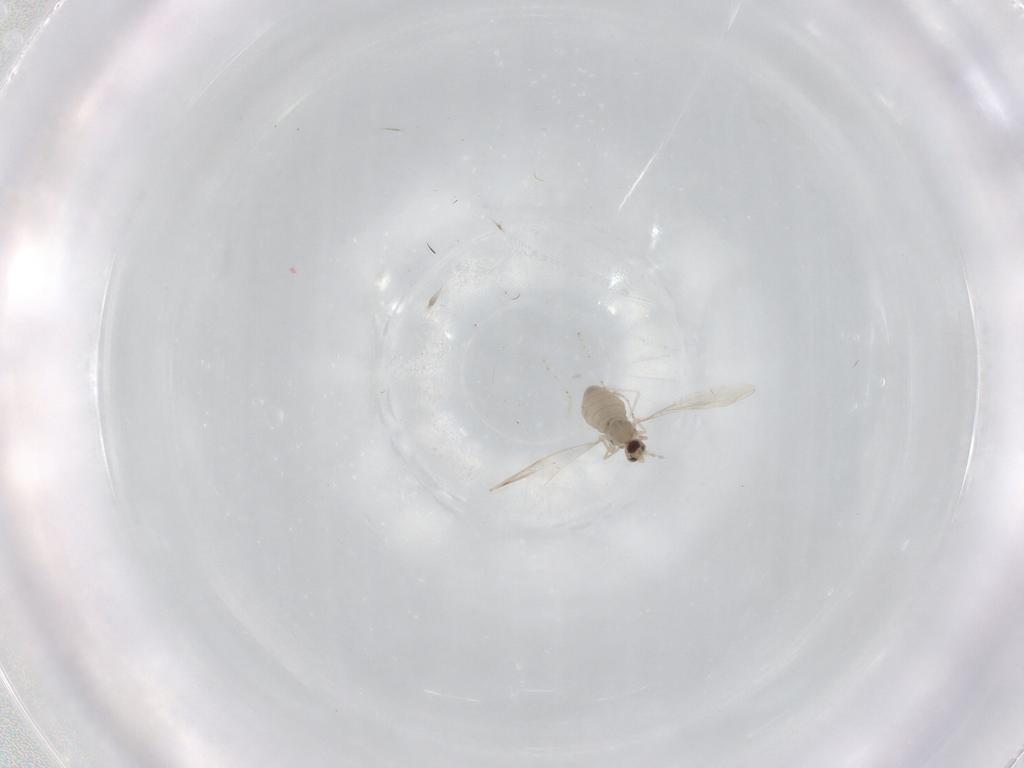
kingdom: Animalia
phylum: Arthropoda
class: Insecta
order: Diptera
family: Cecidomyiidae
